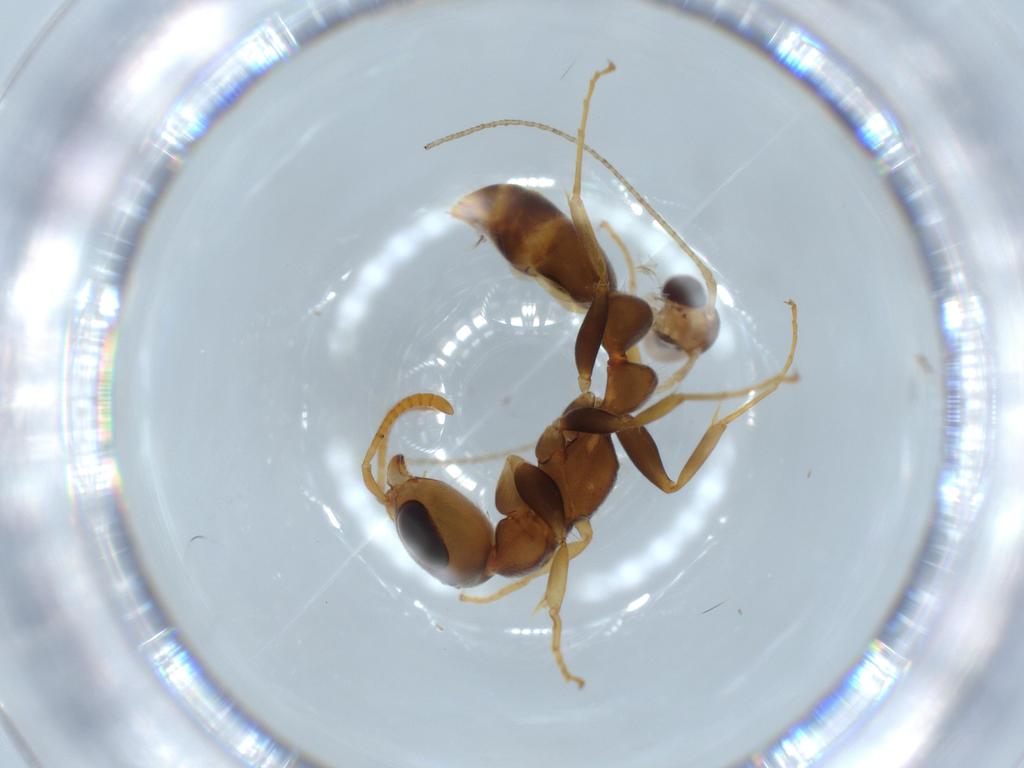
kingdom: Animalia
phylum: Arthropoda
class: Insecta
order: Hymenoptera
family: Formicidae
